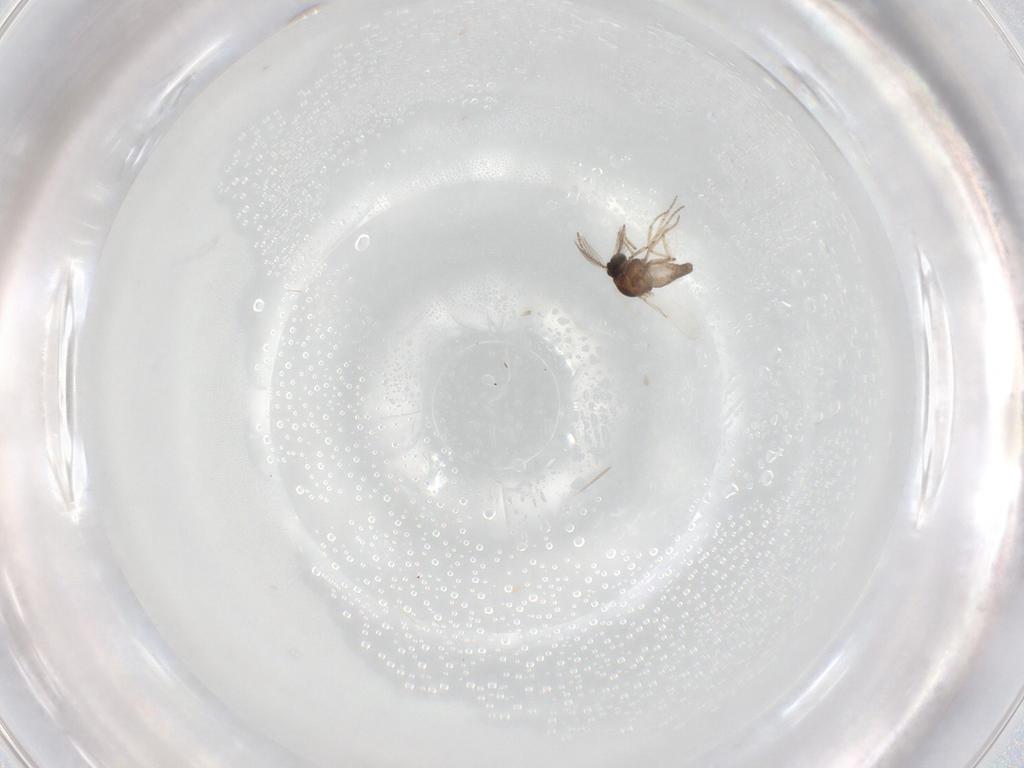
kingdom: Animalia
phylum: Arthropoda
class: Insecta
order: Diptera
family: Ceratopogonidae
